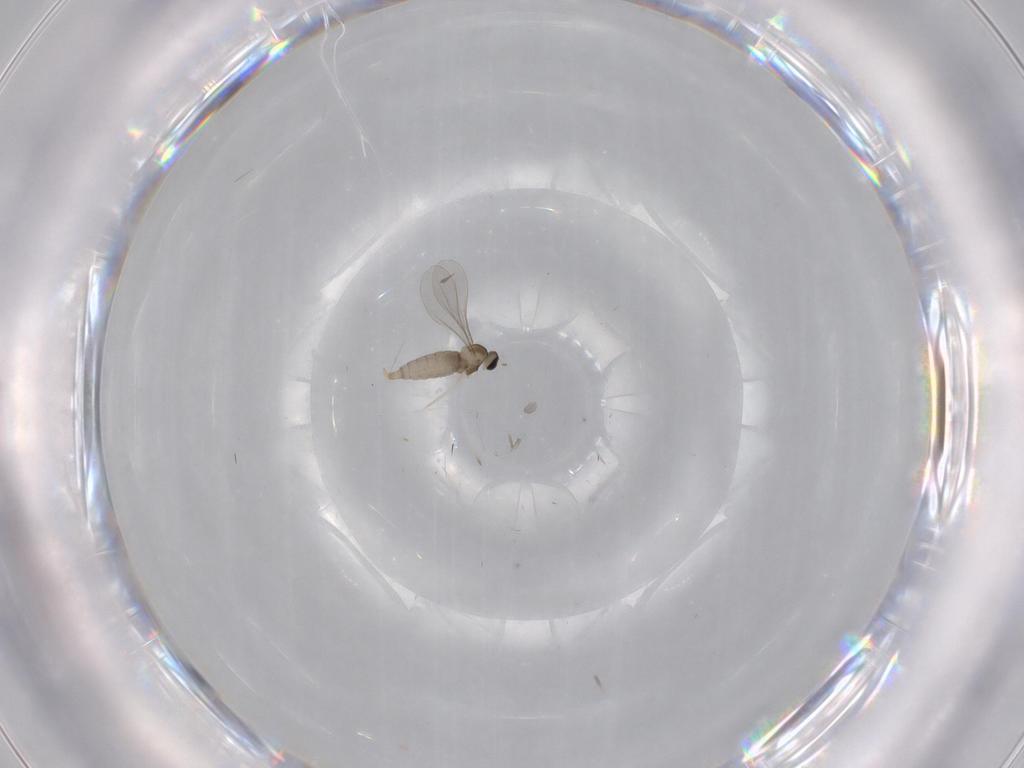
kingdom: Animalia
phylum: Arthropoda
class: Insecta
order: Diptera
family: Cecidomyiidae
